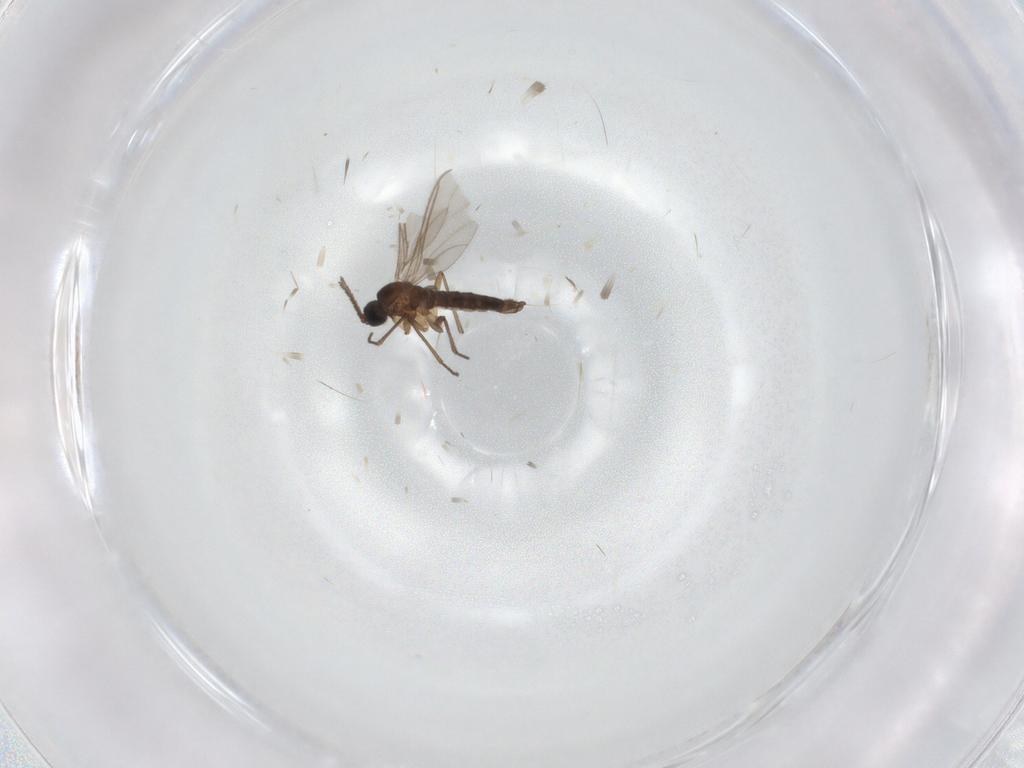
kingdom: Animalia
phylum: Arthropoda
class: Insecta
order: Diptera
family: Sciaridae
